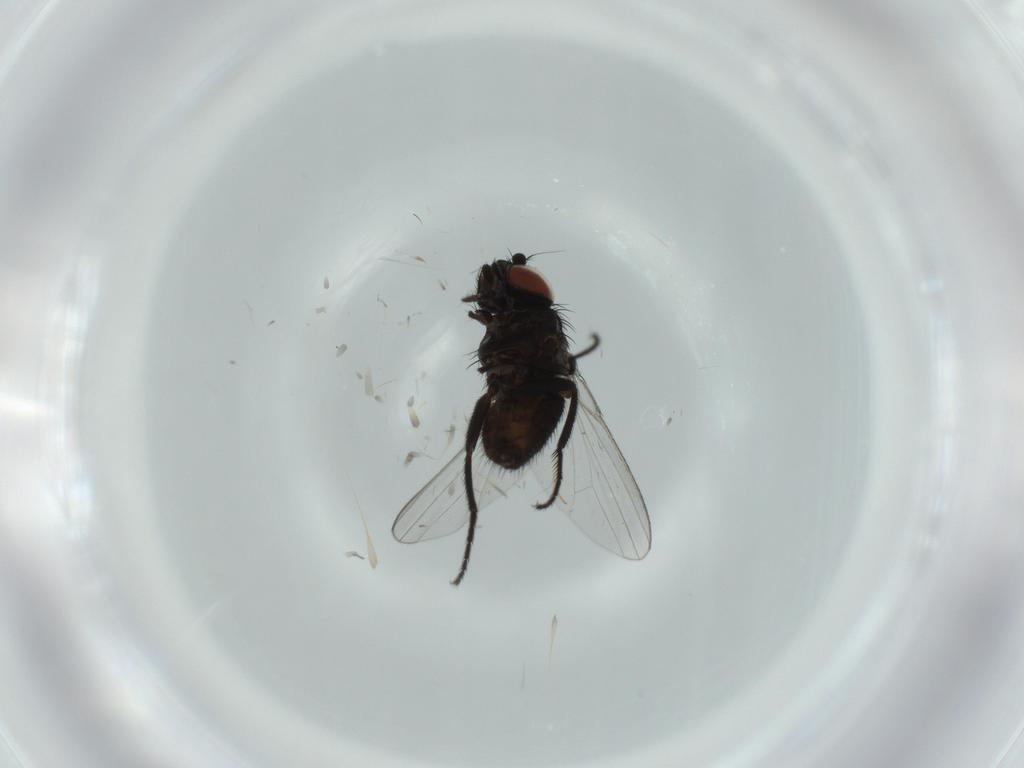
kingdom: Animalia
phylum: Arthropoda
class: Insecta
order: Diptera
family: Milichiidae
